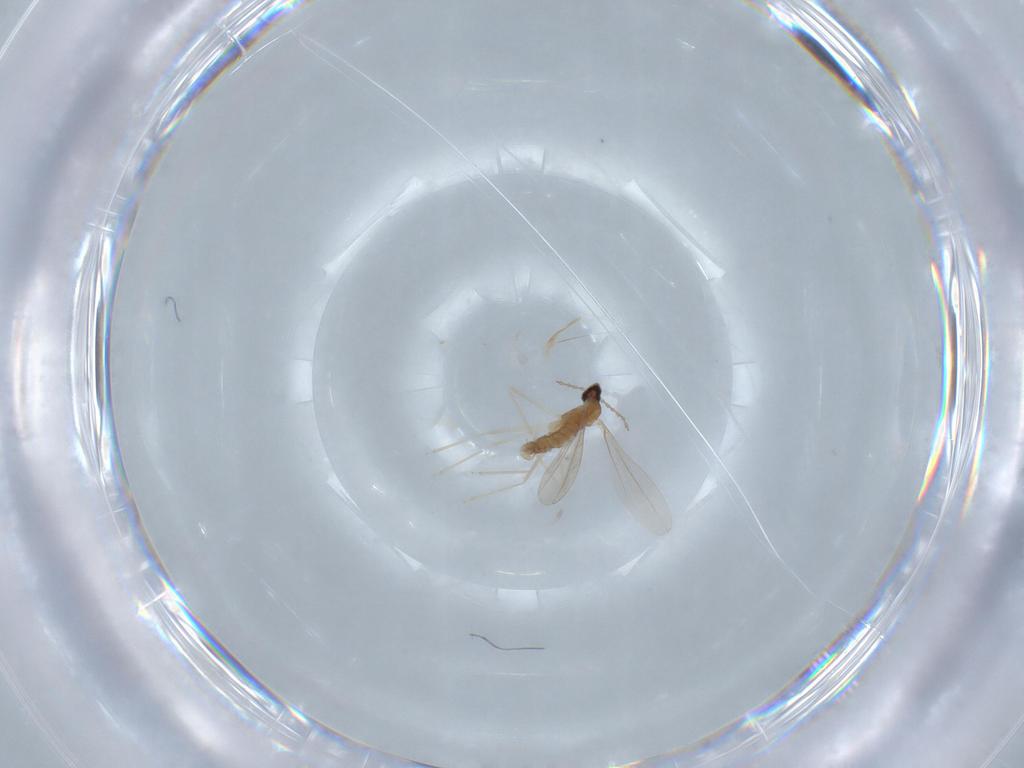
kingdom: Animalia
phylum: Arthropoda
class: Insecta
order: Diptera
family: Cecidomyiidae
